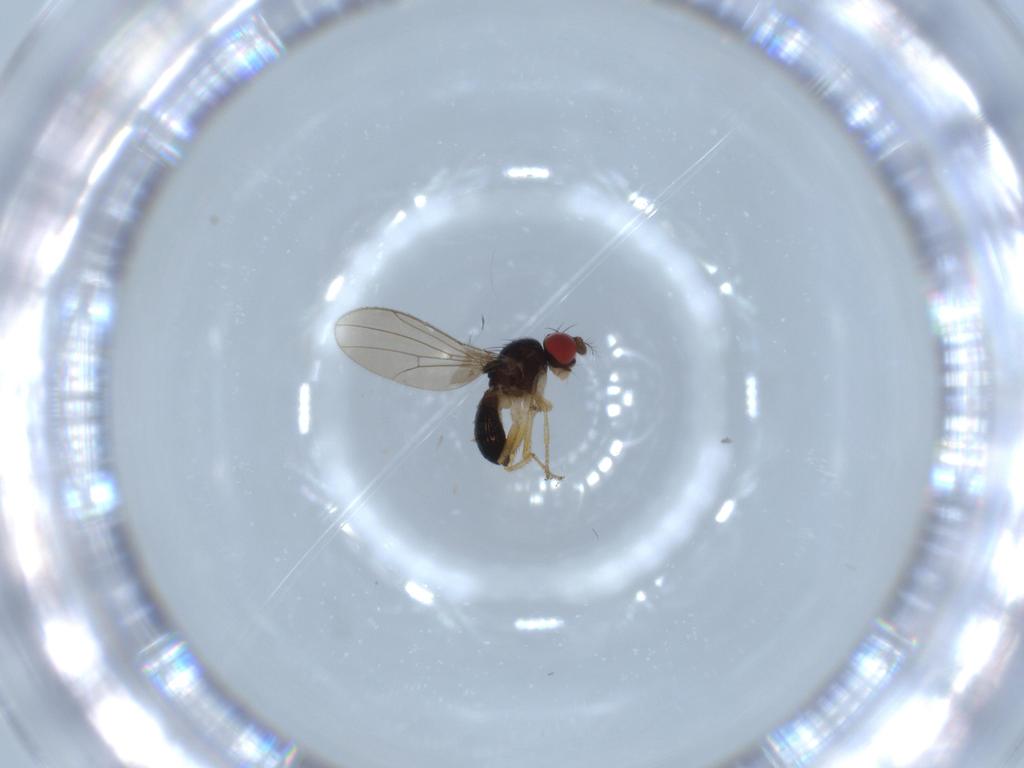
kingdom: Animalia
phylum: Arthropoda
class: Insecta
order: Diptera
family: Drosophilidae
